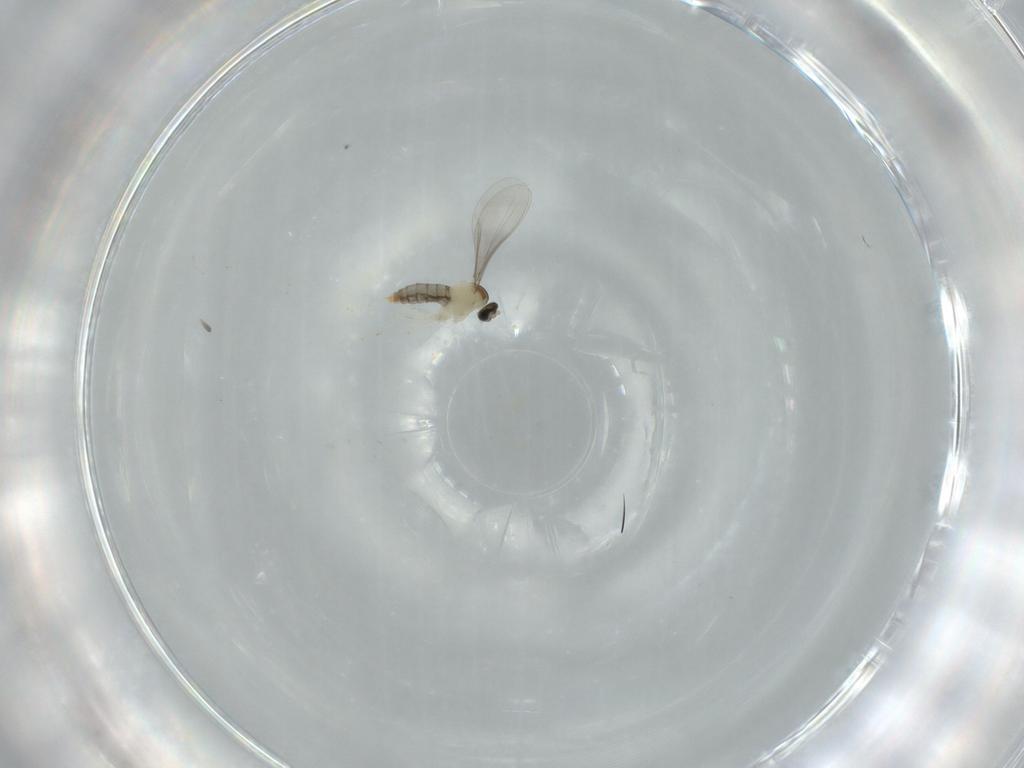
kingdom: Animalia
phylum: Arthropoda
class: Insecta
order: Diptera
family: Cecidomyiidae
